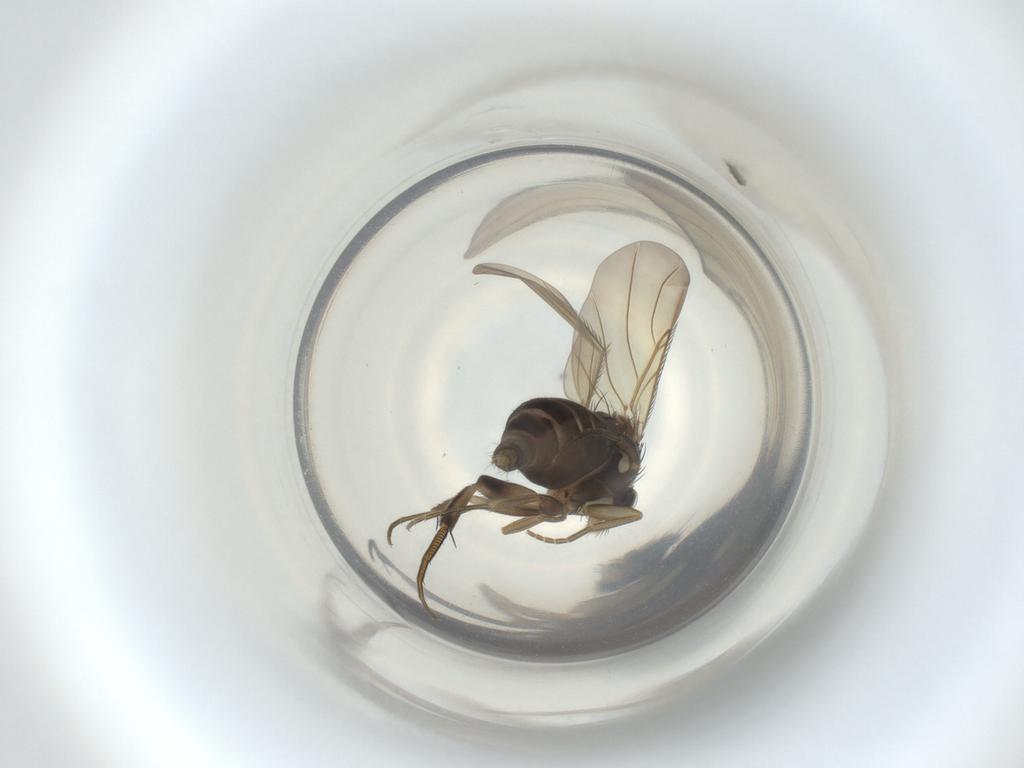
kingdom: Animalia
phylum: Arthropoda
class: Insecta
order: Diptera
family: Phoridae
